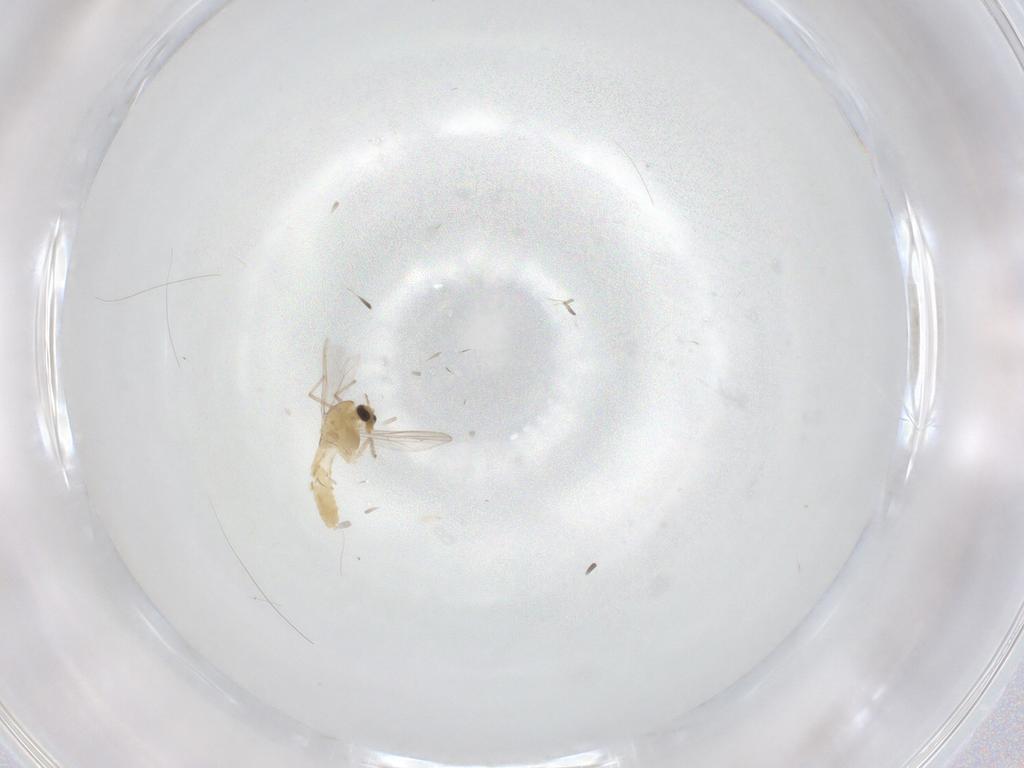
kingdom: Animalia
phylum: Arthropoda
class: Insecta
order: Diptera
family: Chironomidae
